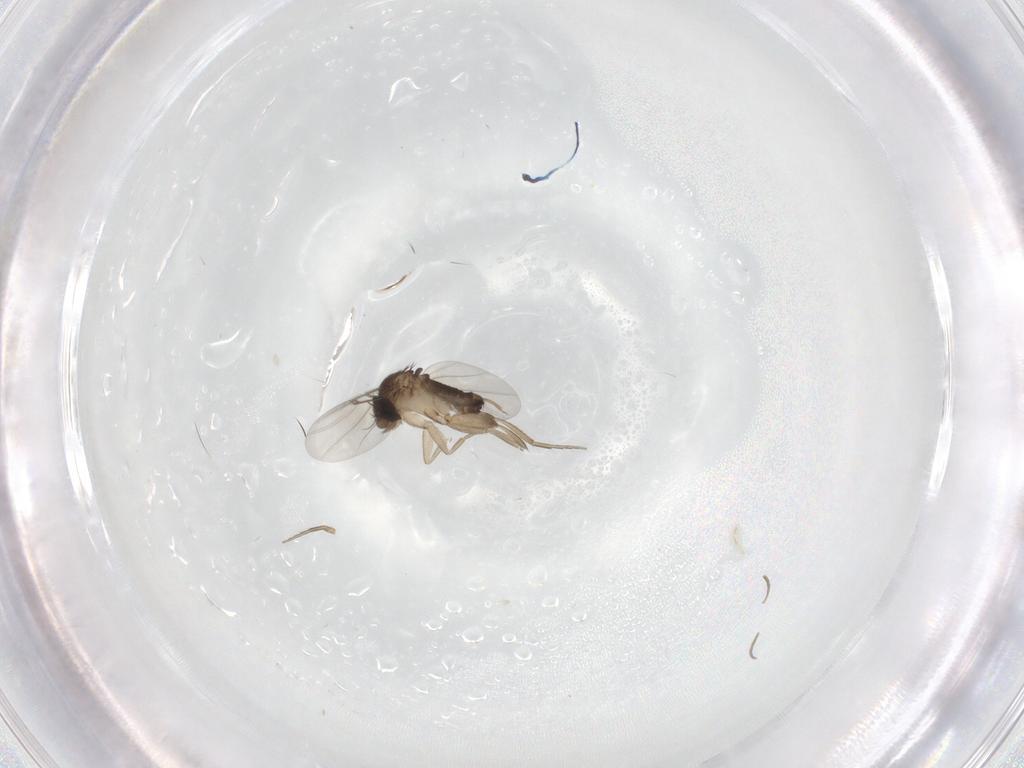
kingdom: Animalia
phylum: Arthropoda
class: Insecta
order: Diptera
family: Phoridae
